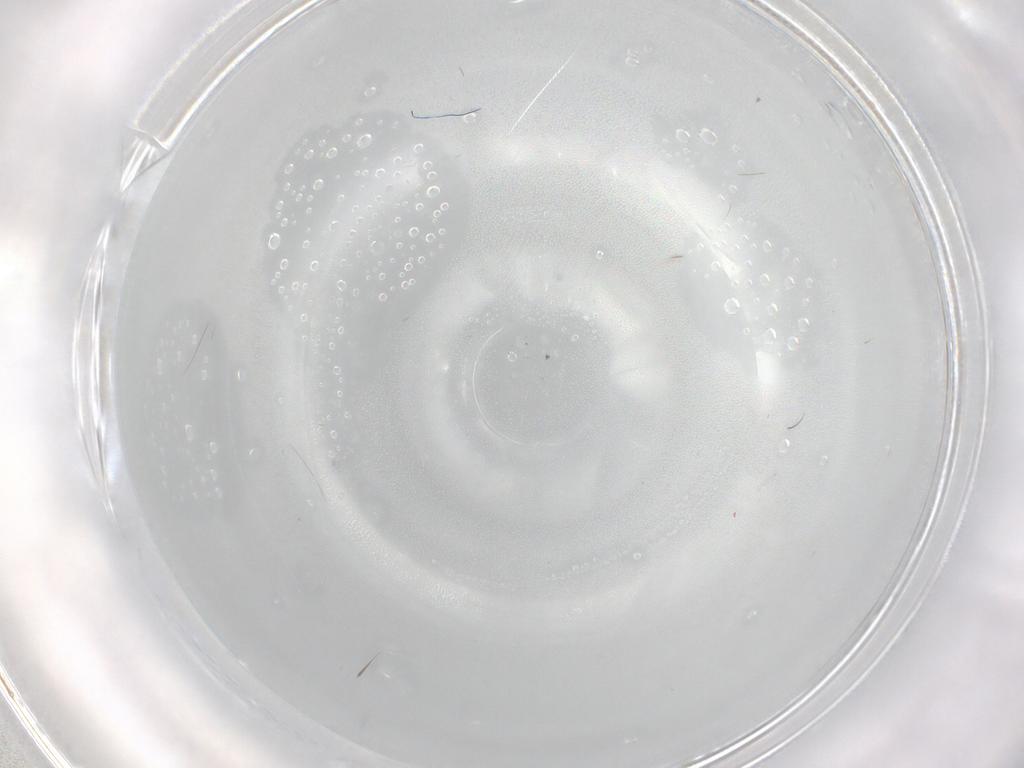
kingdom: Animalia
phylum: Arthropoda
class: Insecta
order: Diptera
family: Cecidomyiidae
